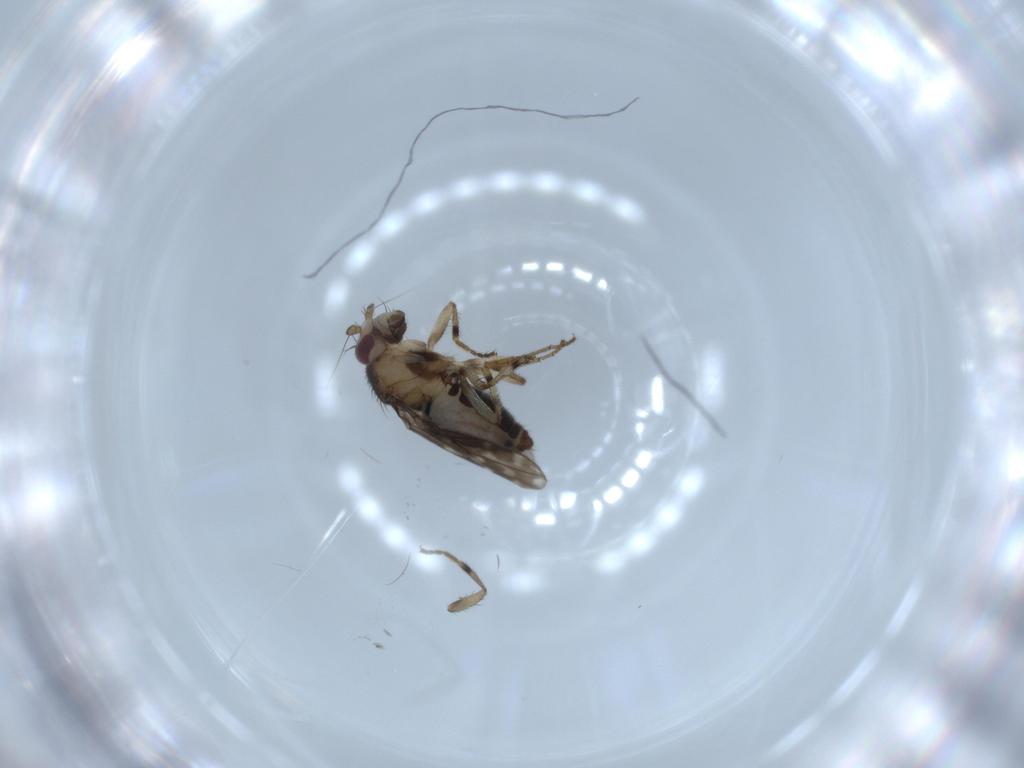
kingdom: Animalia
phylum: Arthropoda
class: Insecta
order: Diptera
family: Sphaeroceridae
